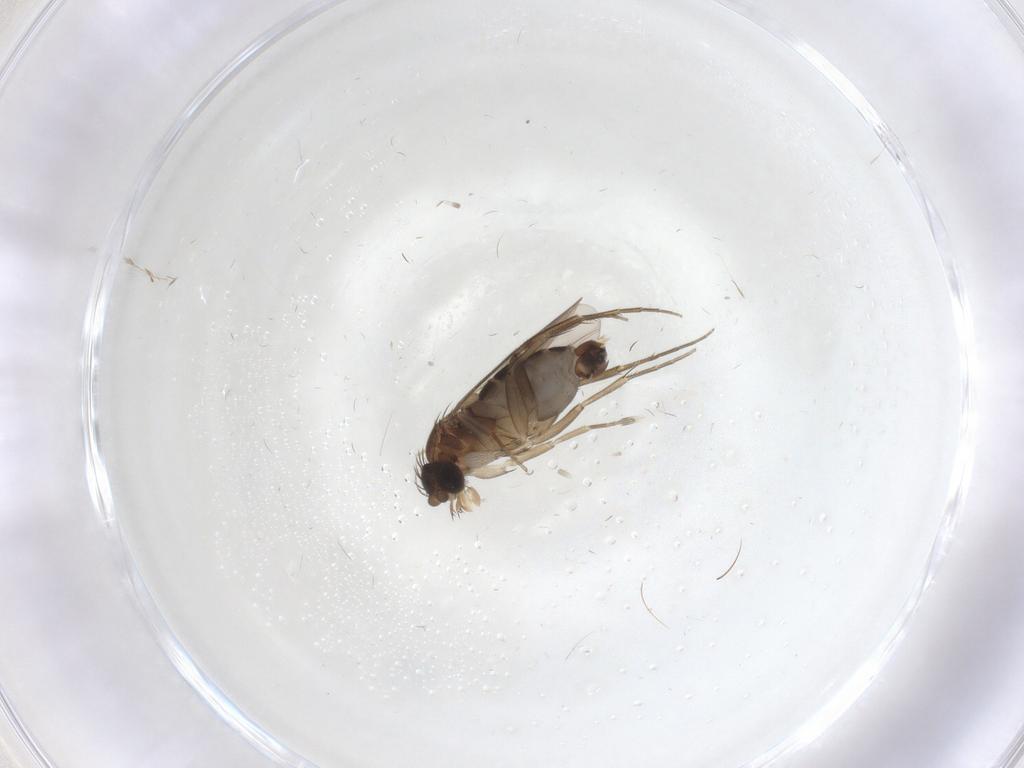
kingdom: Animalia
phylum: Arthropoda
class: Insecta
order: Diptera
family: Phoridae
